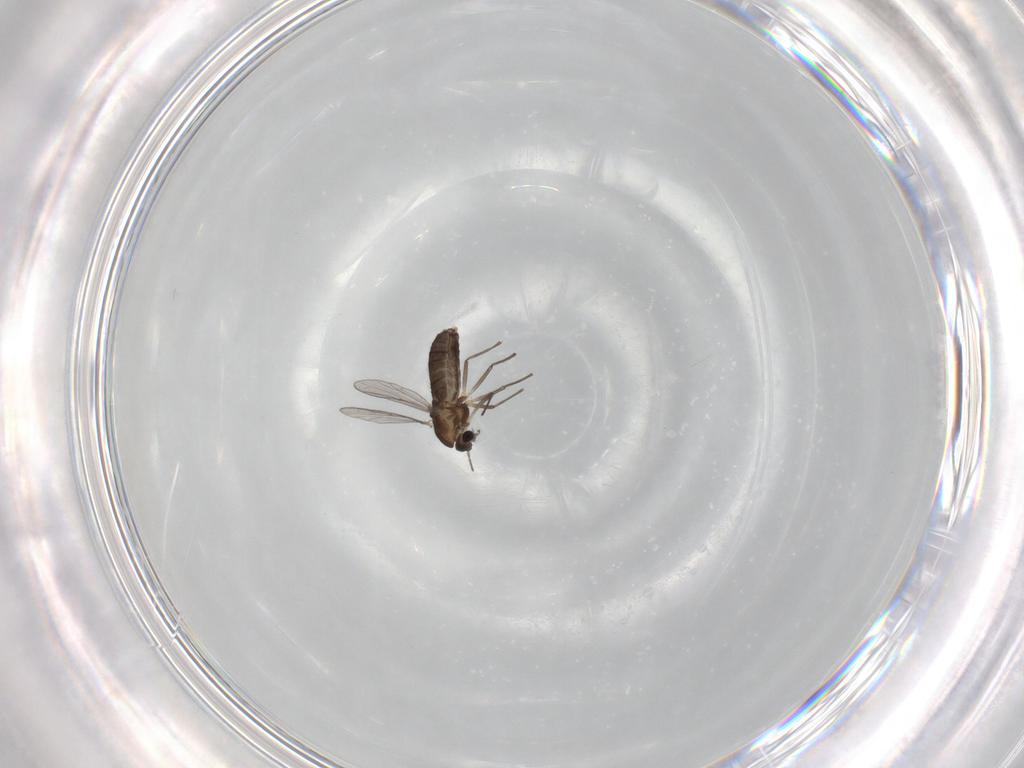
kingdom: Animalia
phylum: Arthropoda
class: Insecta
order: Diptera
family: Chironomidae
